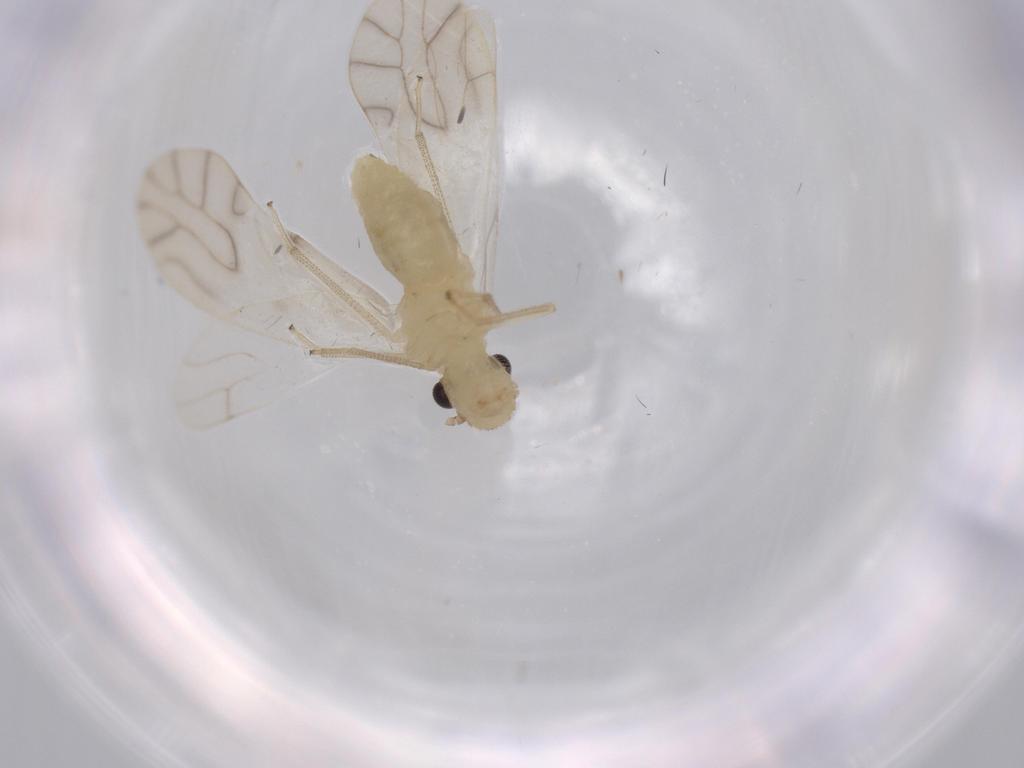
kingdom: Animalia
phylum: Arthropoda
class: Insecta
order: Psocodea
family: Caeciliusidae
